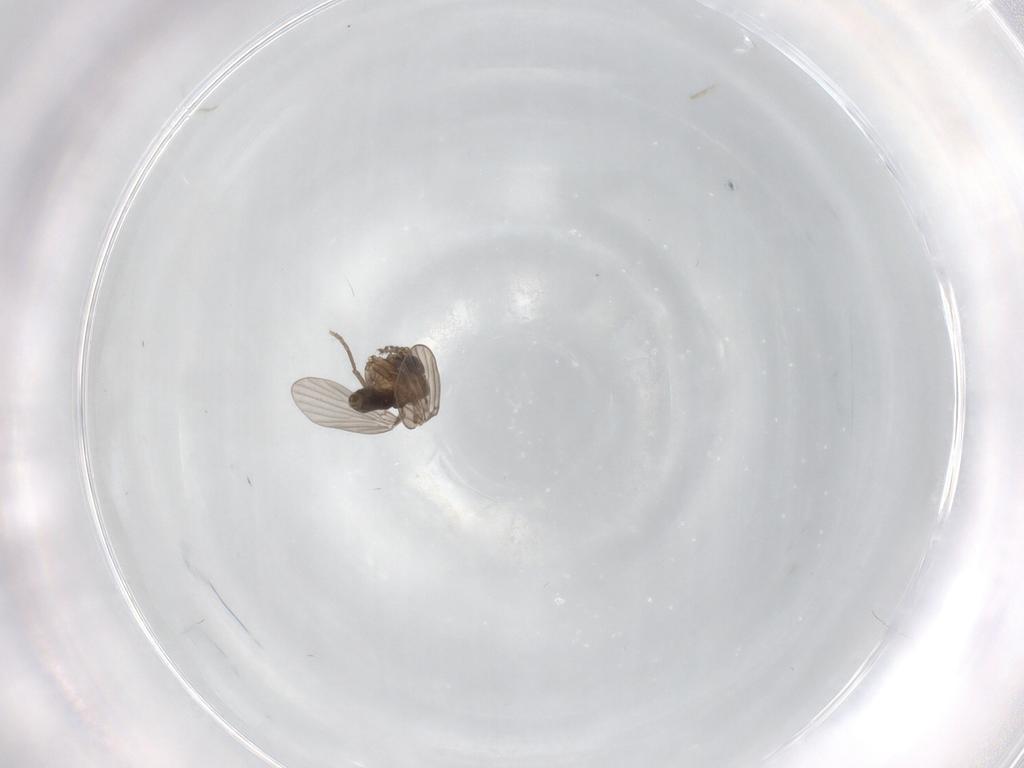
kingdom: Animalia
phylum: Arthropoda
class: Insecta
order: Diptera
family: Psychodidae
